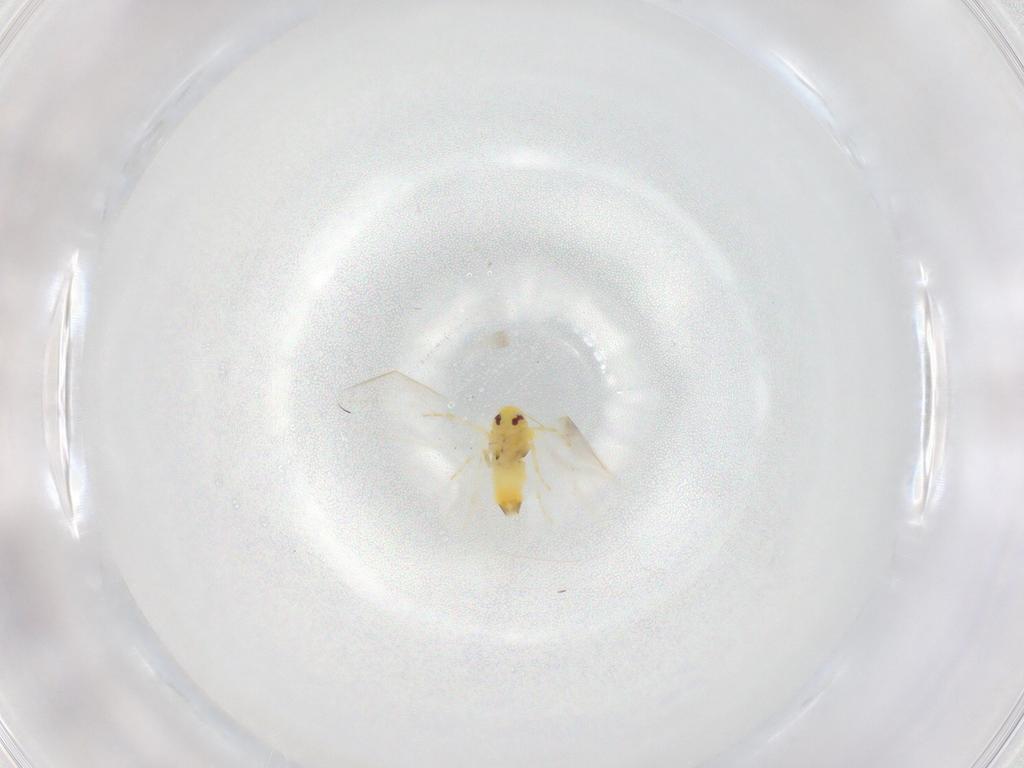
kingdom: Animalia
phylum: Arthropoda
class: Insecta
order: Hemiptera
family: Aleyrodidae
